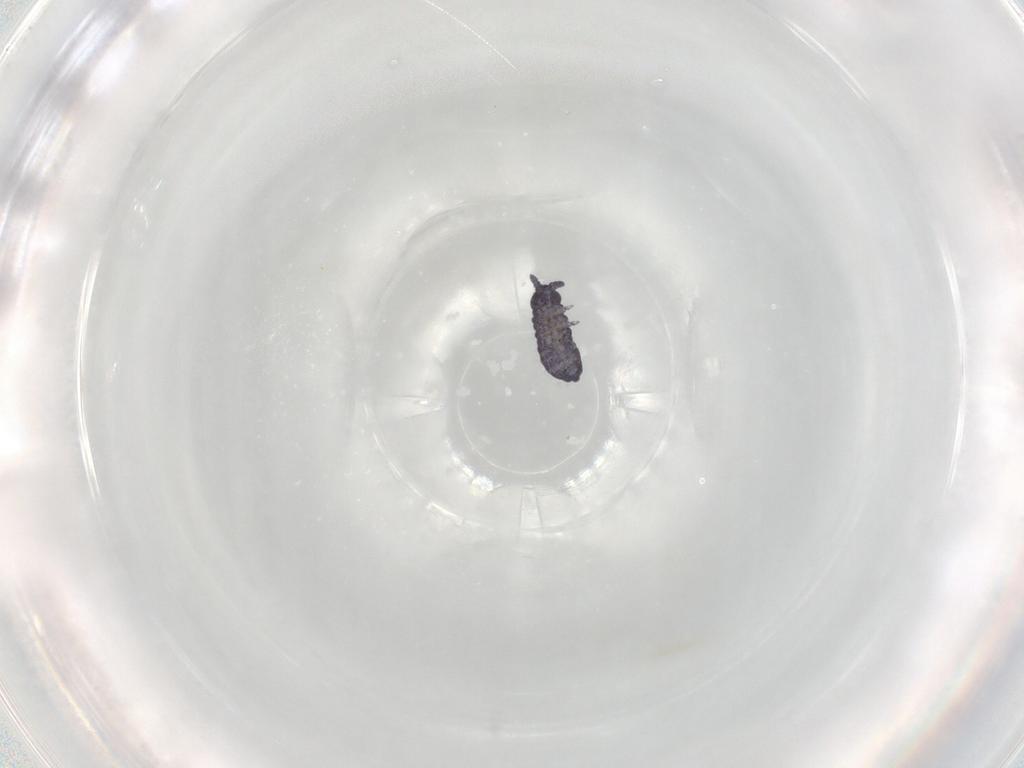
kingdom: Animalia
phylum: Arthropoda
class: Collembola
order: Poduromorpha
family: Neanuridae
